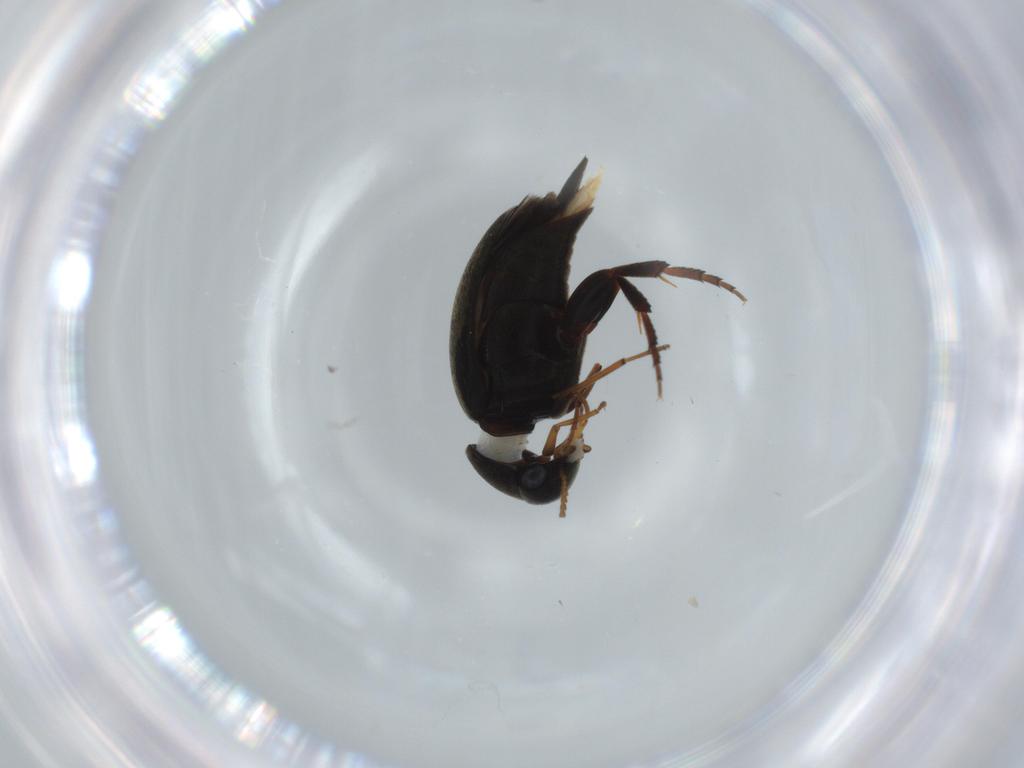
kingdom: Animalia
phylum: Arthropoda
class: Insecta
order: Coleoptera
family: Mordellidae
